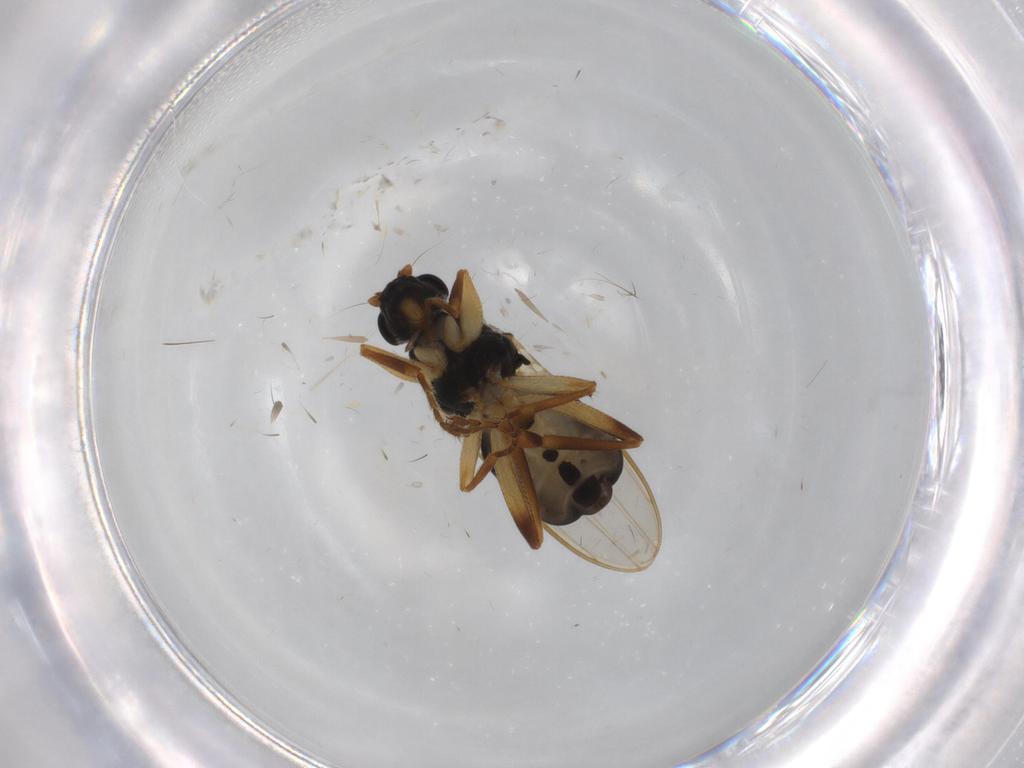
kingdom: Animalia
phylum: Arthropoda
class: Insecta
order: Diptera
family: Sphaeroceridae
